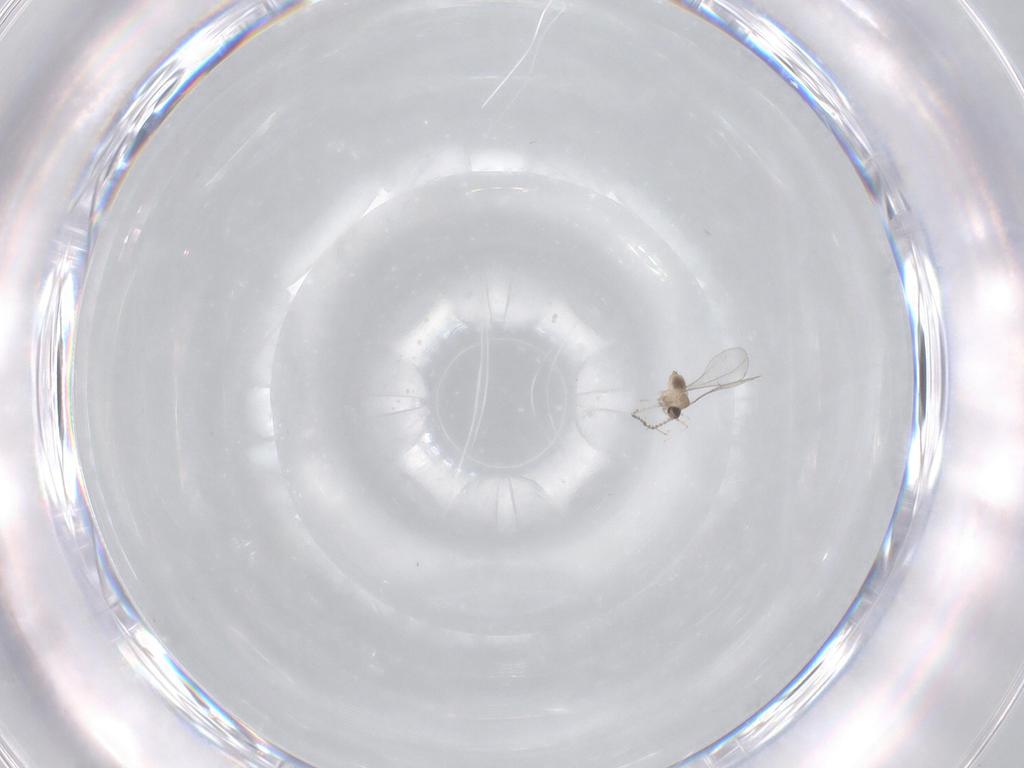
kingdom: Animalia
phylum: Arthropoda
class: Insecta
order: Diptera
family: Cecidomyiidae
